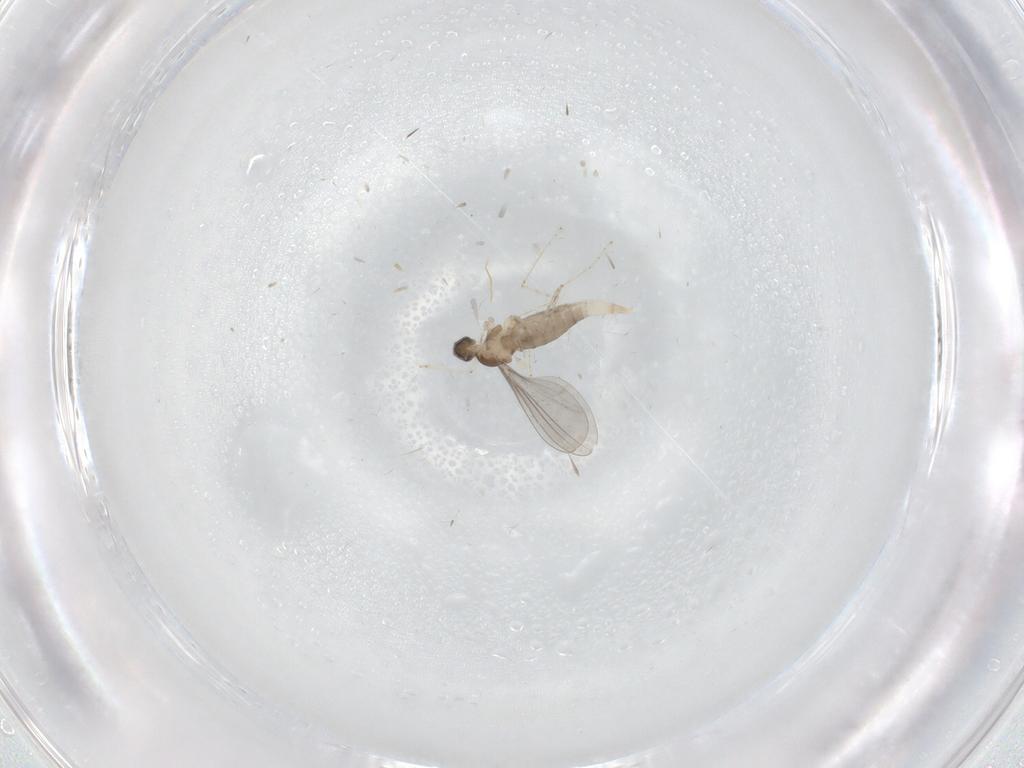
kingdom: Animalia
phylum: Arthropoda
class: Insecta
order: Diptera
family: Cecidomyiidae
